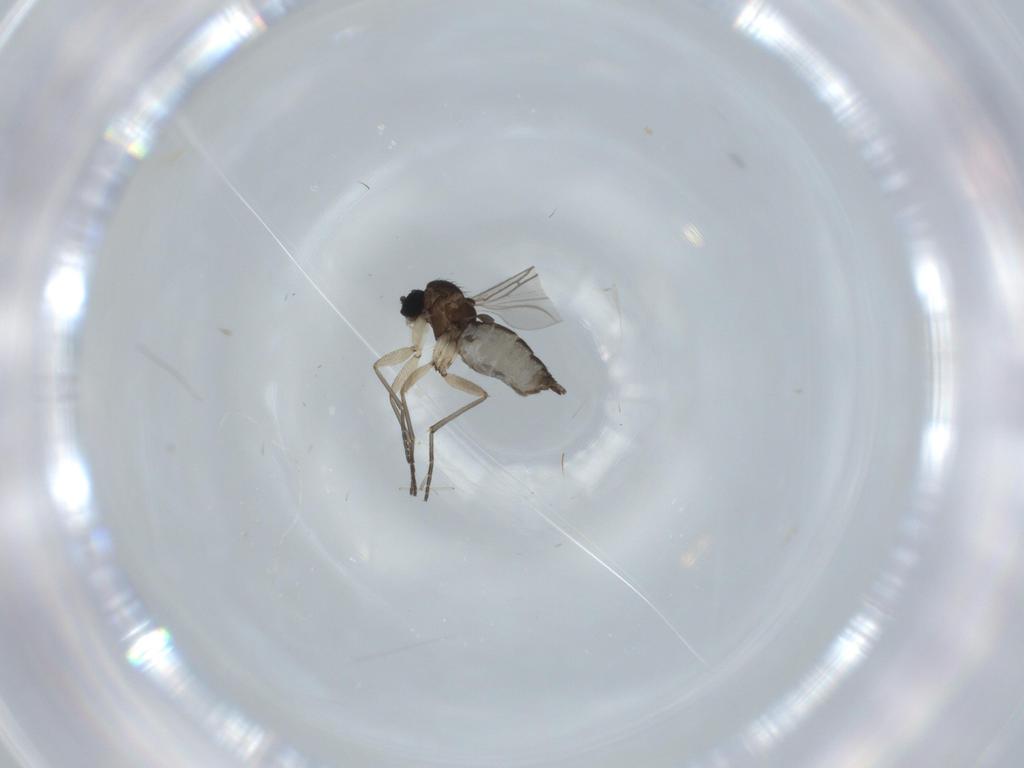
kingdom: Animalia
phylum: Arthropoda
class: Insecta
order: Diptera
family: Sciaridae
